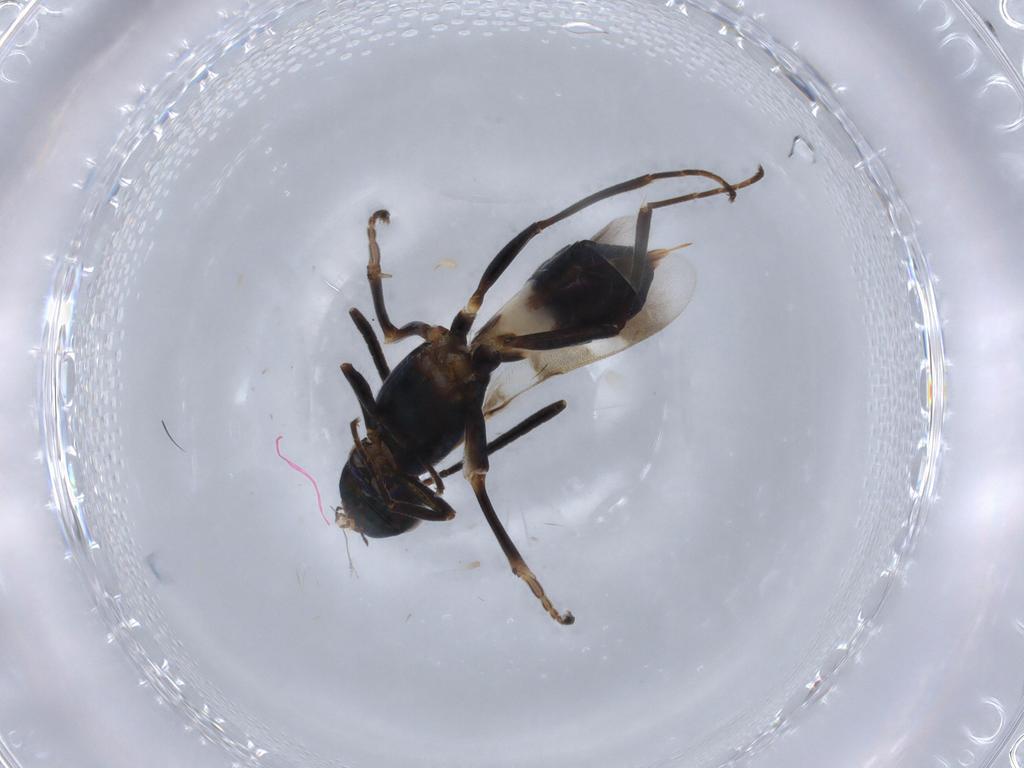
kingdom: Animalia
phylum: Arthropoda
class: Insecta
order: Hymenoptera
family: Eupelmidae
